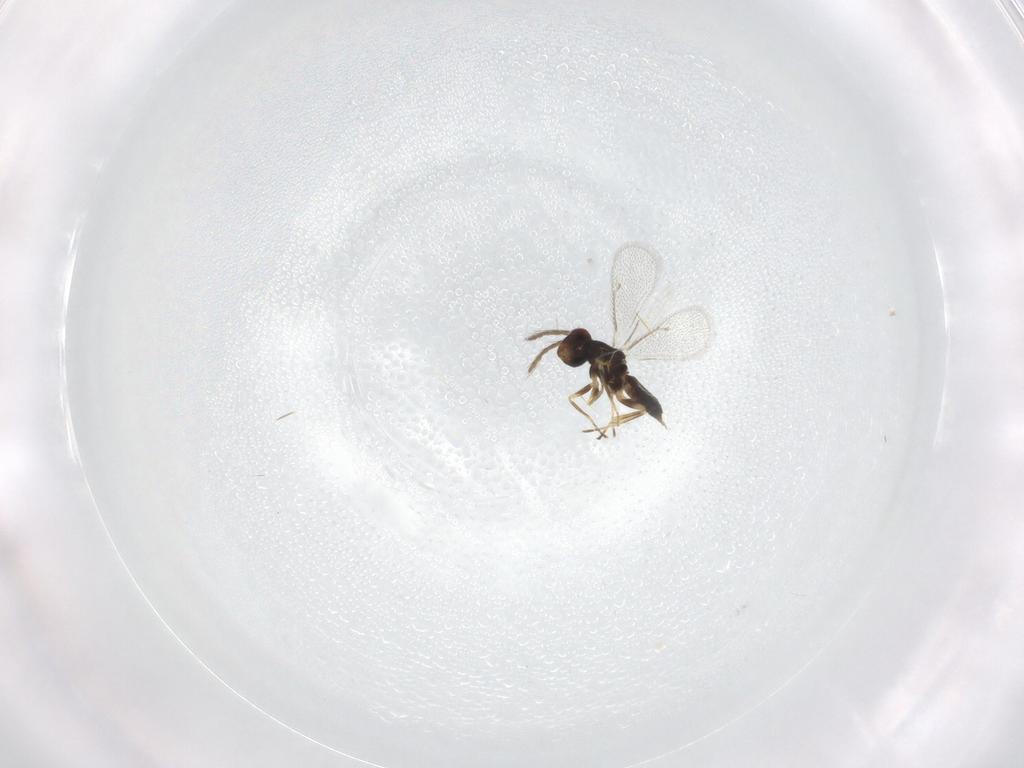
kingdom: Animalia
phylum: Arthropoda
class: Insecta
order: Hymenoptera
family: Eulophidae
